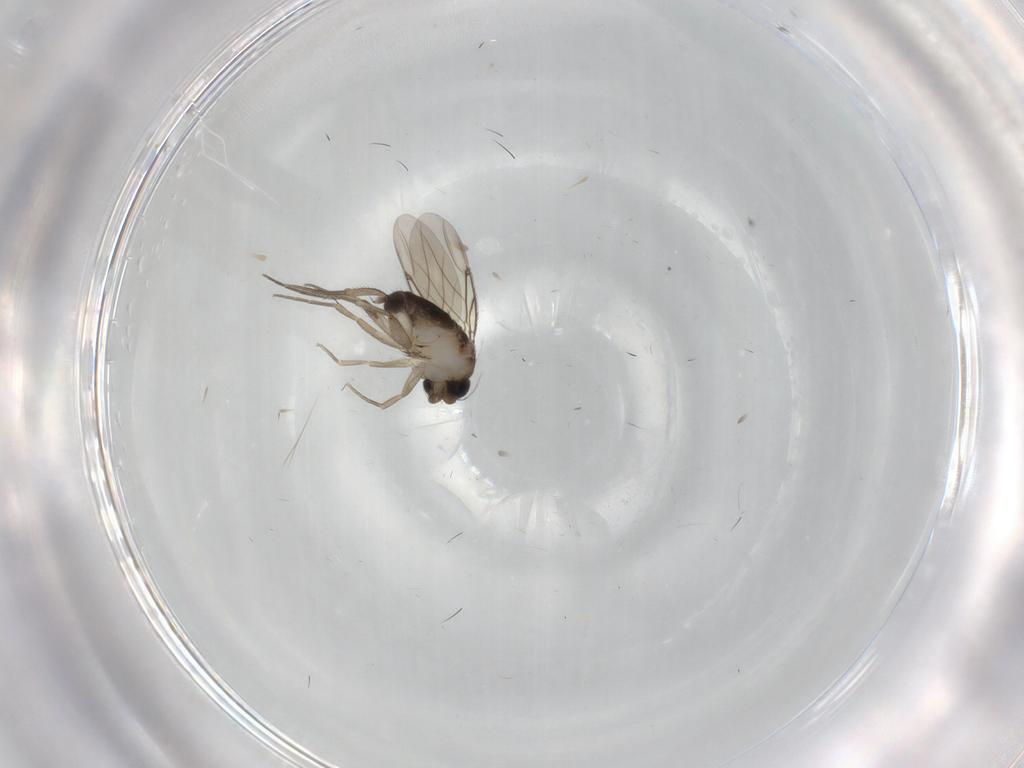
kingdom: Animalia
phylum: Arthropoda
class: Insecta
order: Diptera
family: Phoridae
